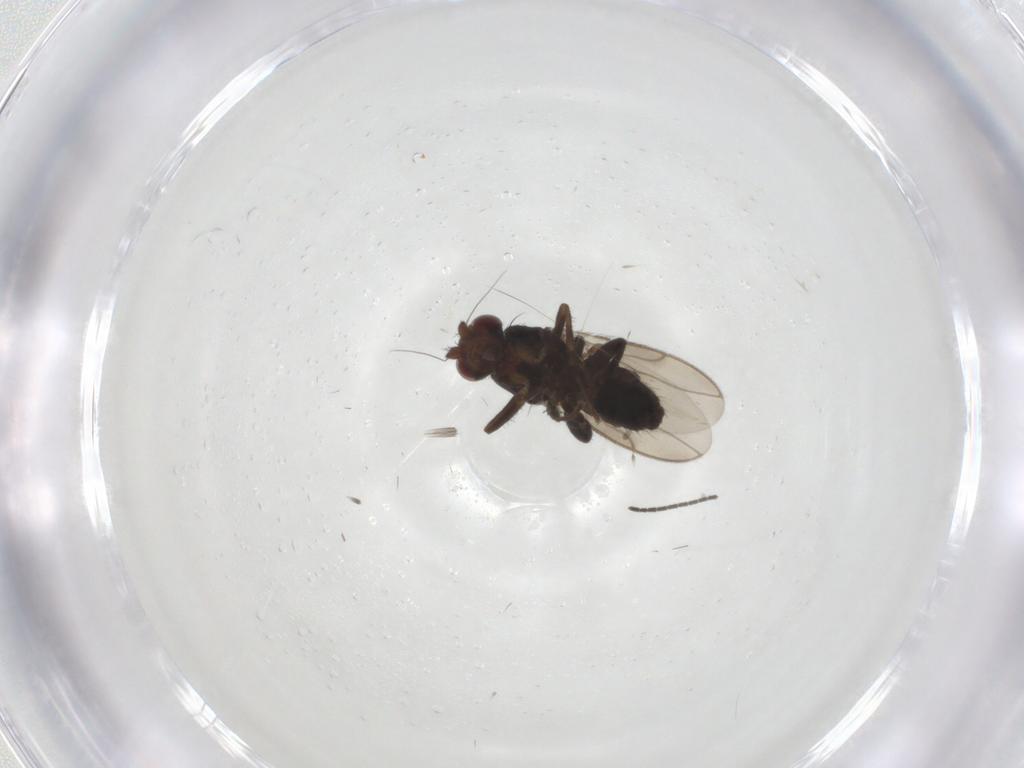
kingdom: Animalia
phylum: Arthropoda
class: Insecta
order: Diptera
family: Sphaeroceridae
